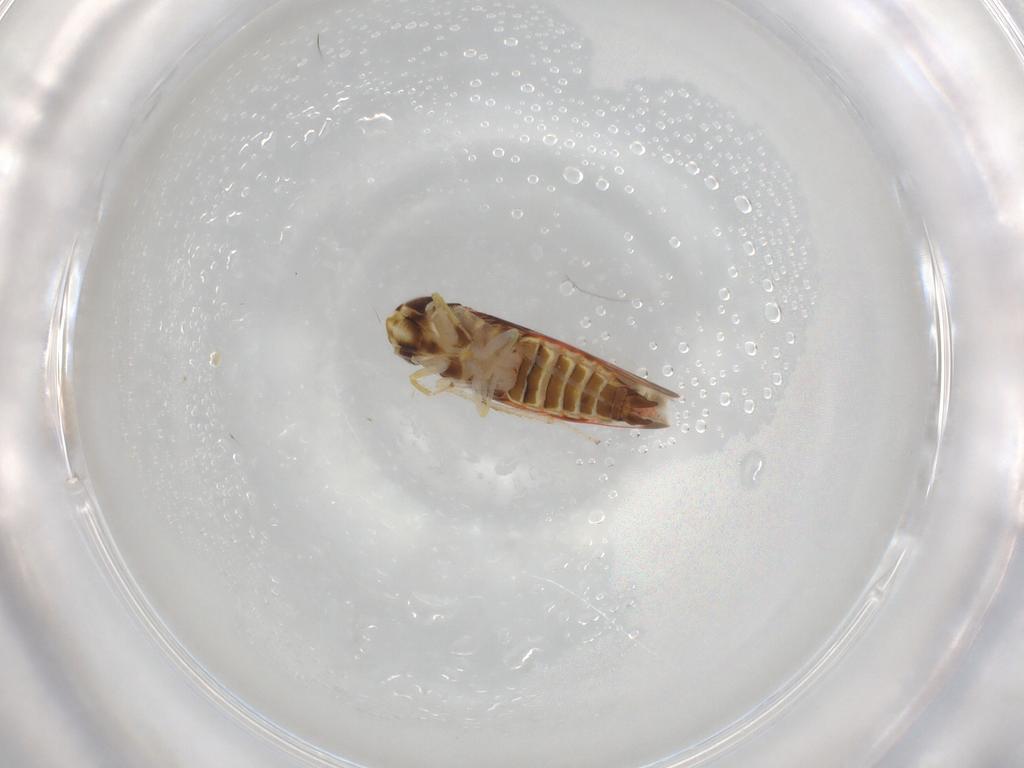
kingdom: Animalia
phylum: Arthropoda
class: Insecta
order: Hemiptera
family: Cicadellidae
